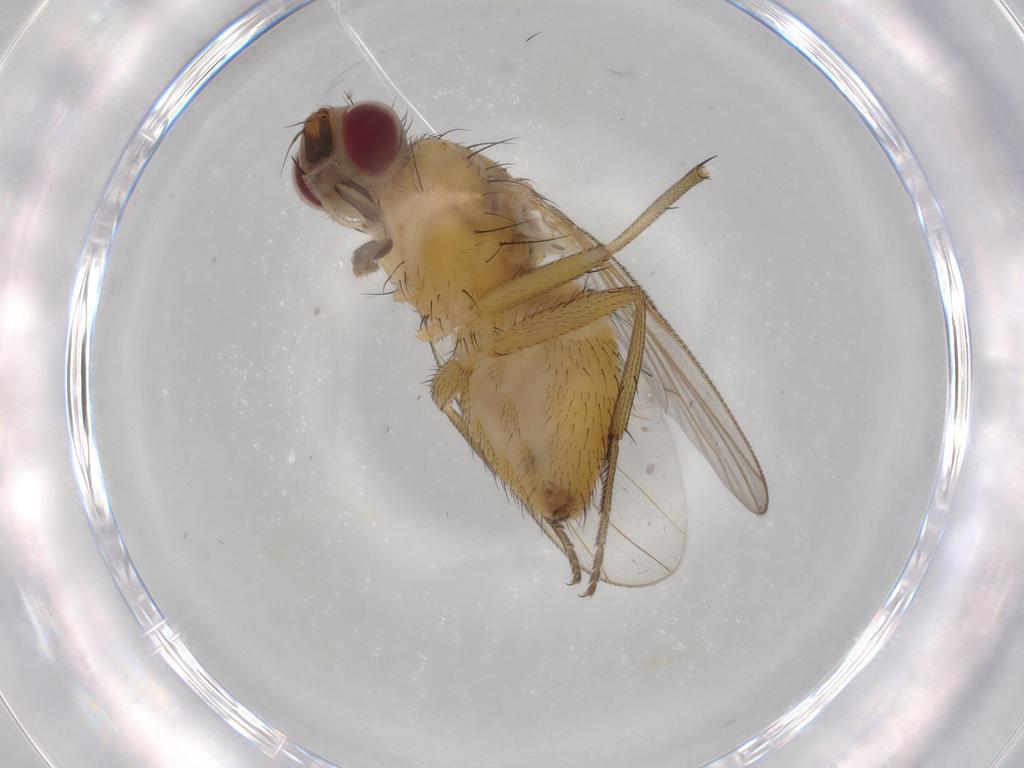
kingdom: Animalia
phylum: Arthropoda
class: Insecta
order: Diptera
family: Muscidae
